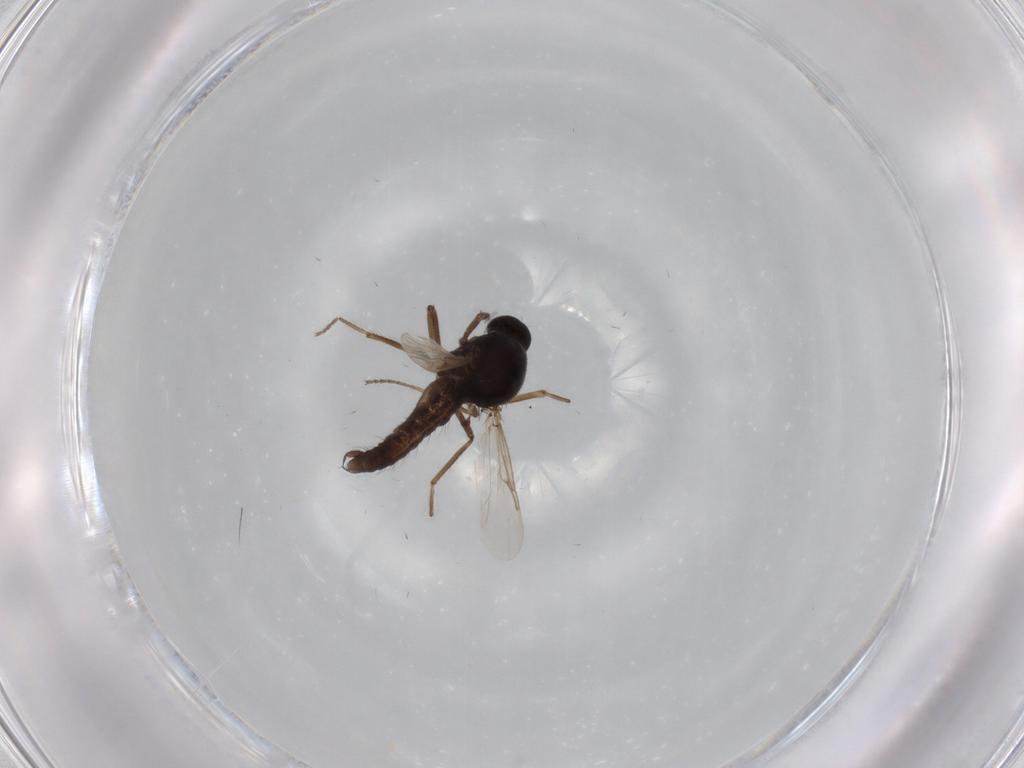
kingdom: Animalia
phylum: Arthropoda
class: Insecta
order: Diptera
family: Ceratopogonidae
